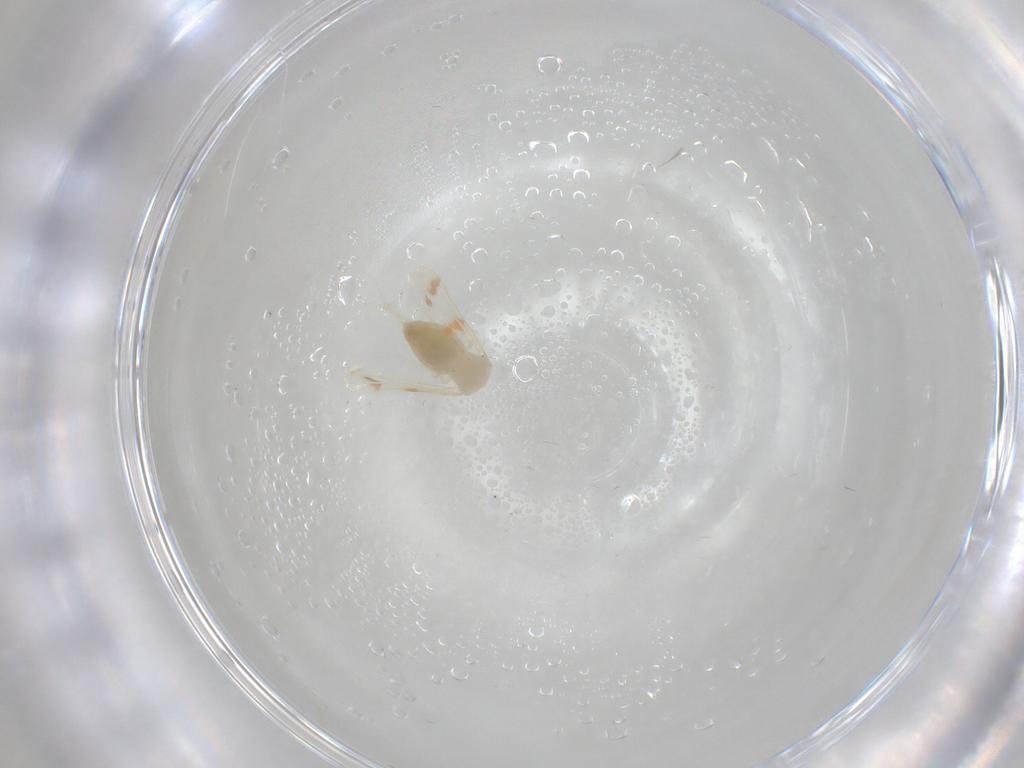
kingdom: Animalia
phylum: Arthropoda
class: Insecta
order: Hemiptera
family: Aleyrodidae
